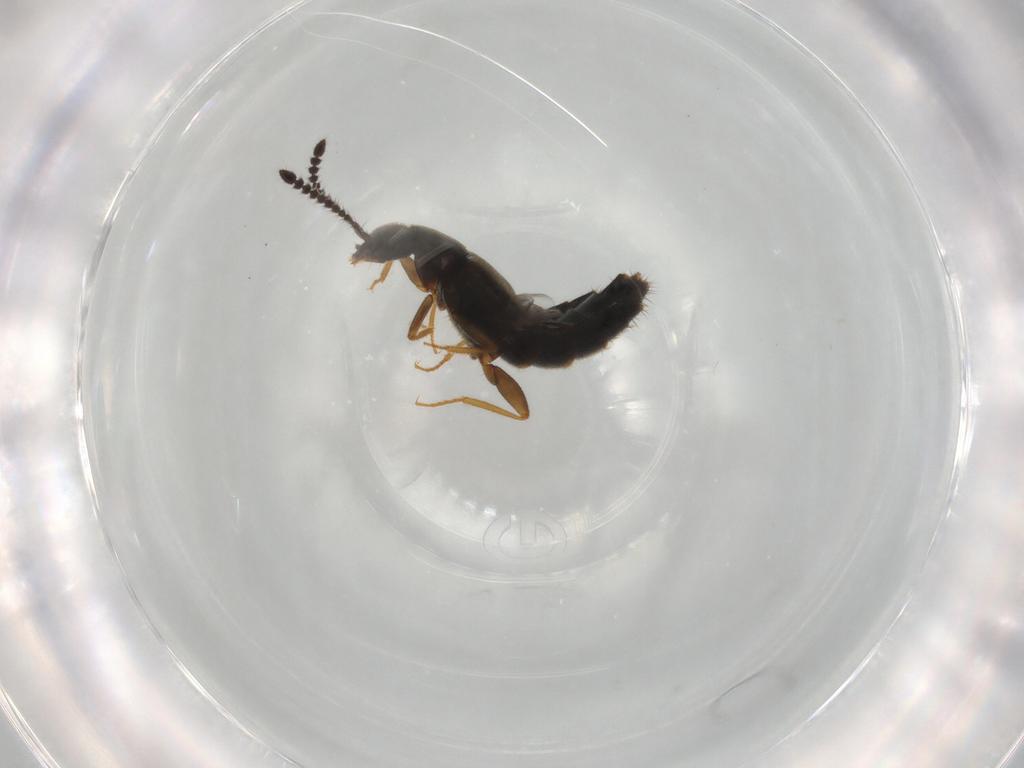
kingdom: Animalia
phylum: Arthropoda
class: Insecta
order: Coleoptera
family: Staphylinidae
